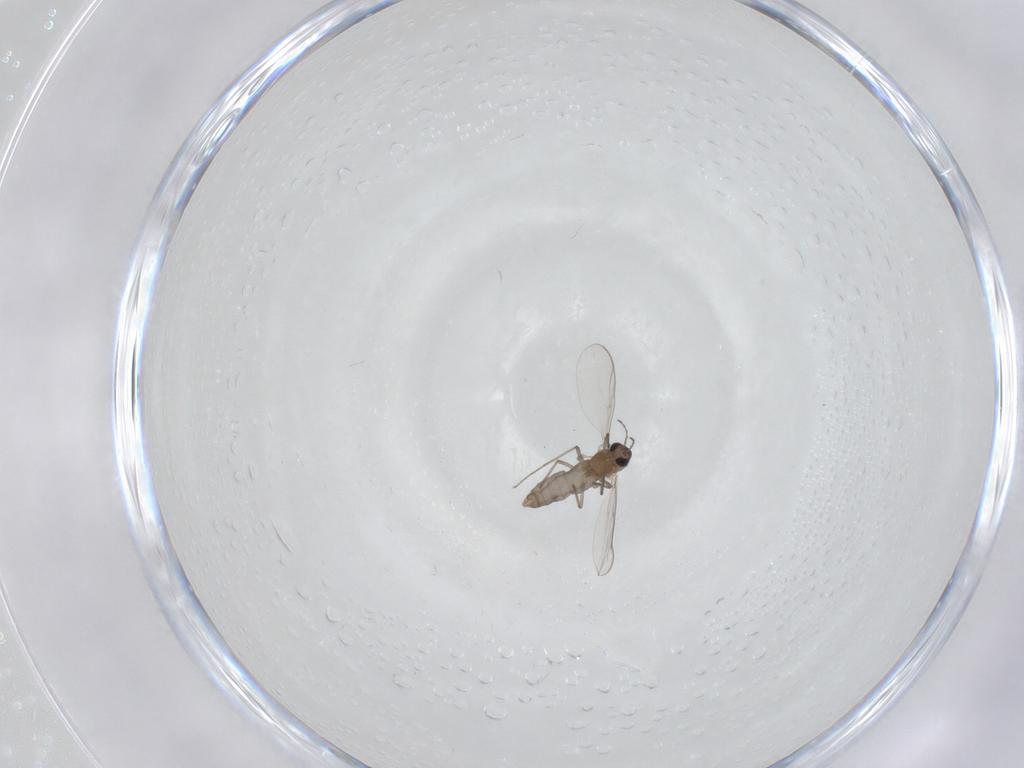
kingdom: Animalia
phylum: Arthropoda
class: Insecta
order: Diptera
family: Chironomidae
